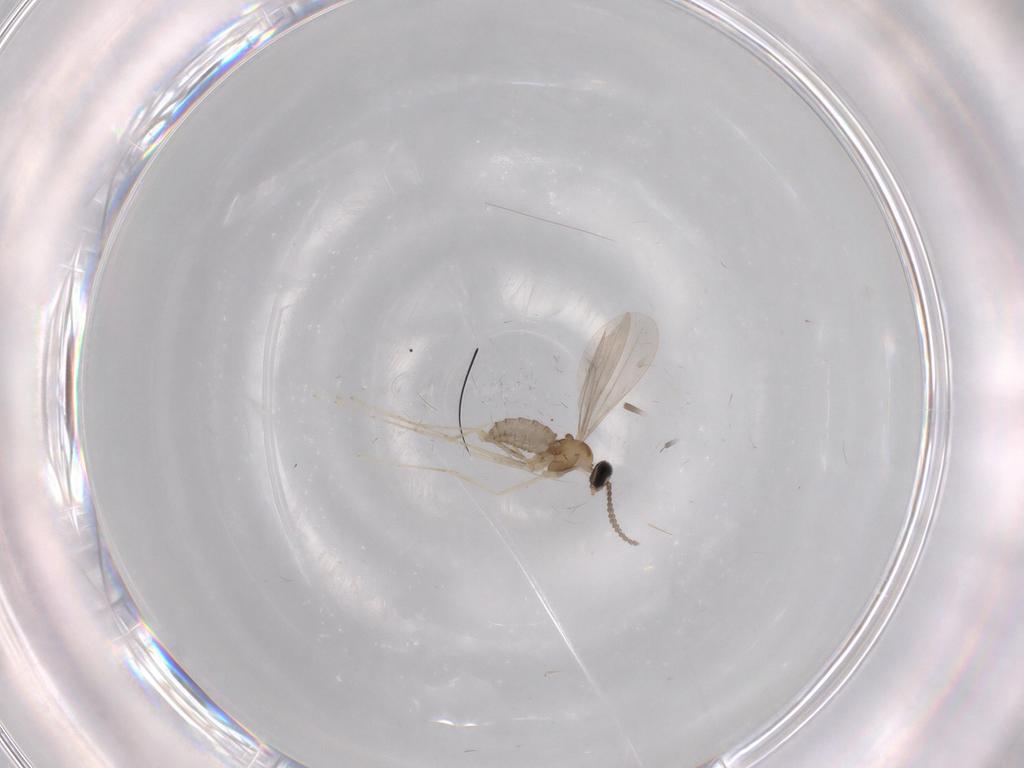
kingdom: Animalia
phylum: Arthropoda
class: Insecta
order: Diptera
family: Cecidomyiidae
